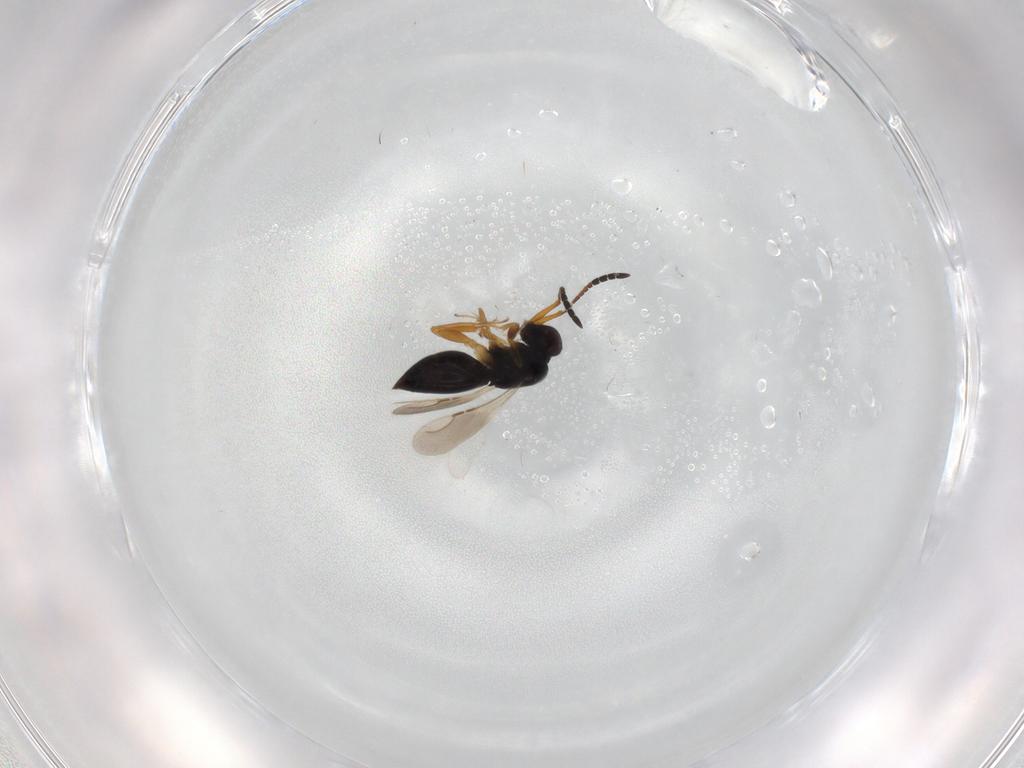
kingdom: Animalia
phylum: Arthropoda
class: Insecta
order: Hymenoptera
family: Diapriidae
